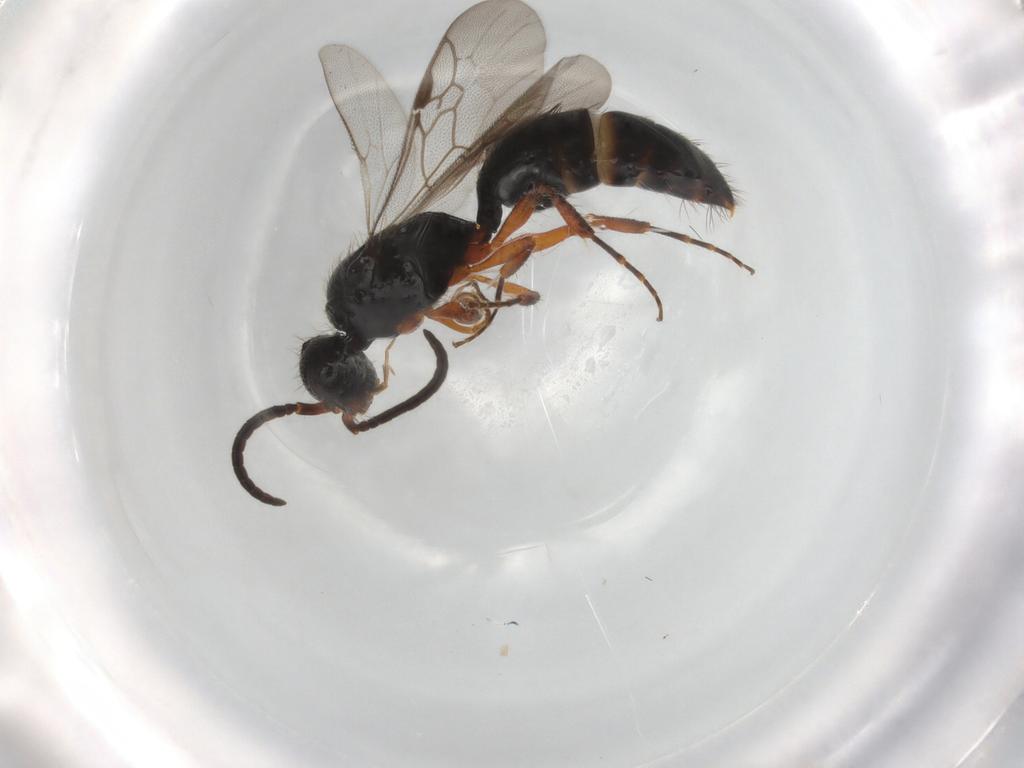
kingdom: Animalia
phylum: Arthropoda
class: Insecta
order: Hymenoptera
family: Mutillidae
